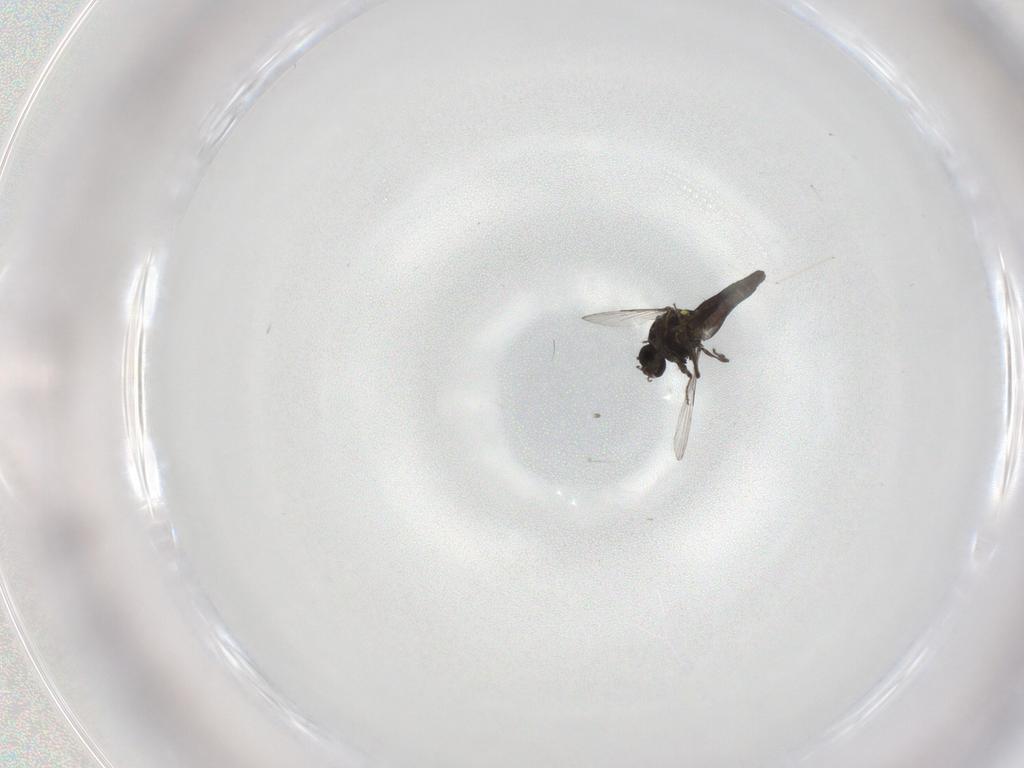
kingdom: Animalia
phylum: Arthropoda
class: Insecta
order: Diptera
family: Ceratopogonidae
